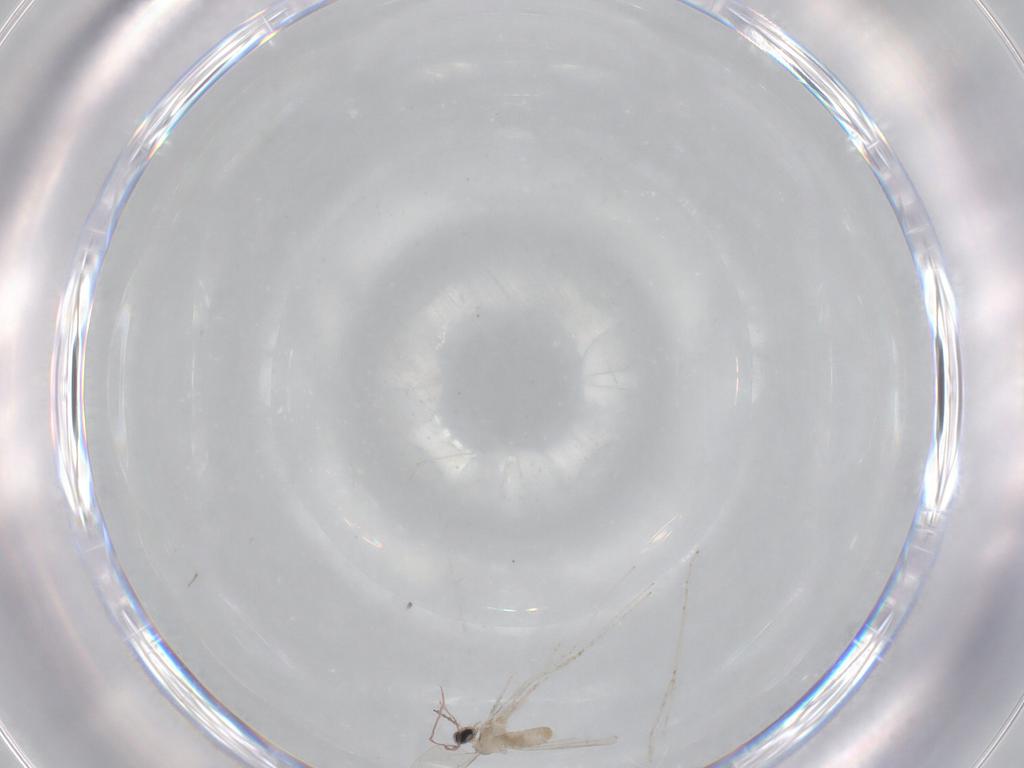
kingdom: Animalia
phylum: Arthropoda
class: Insecta
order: Diptera
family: Cecidomyiidae
